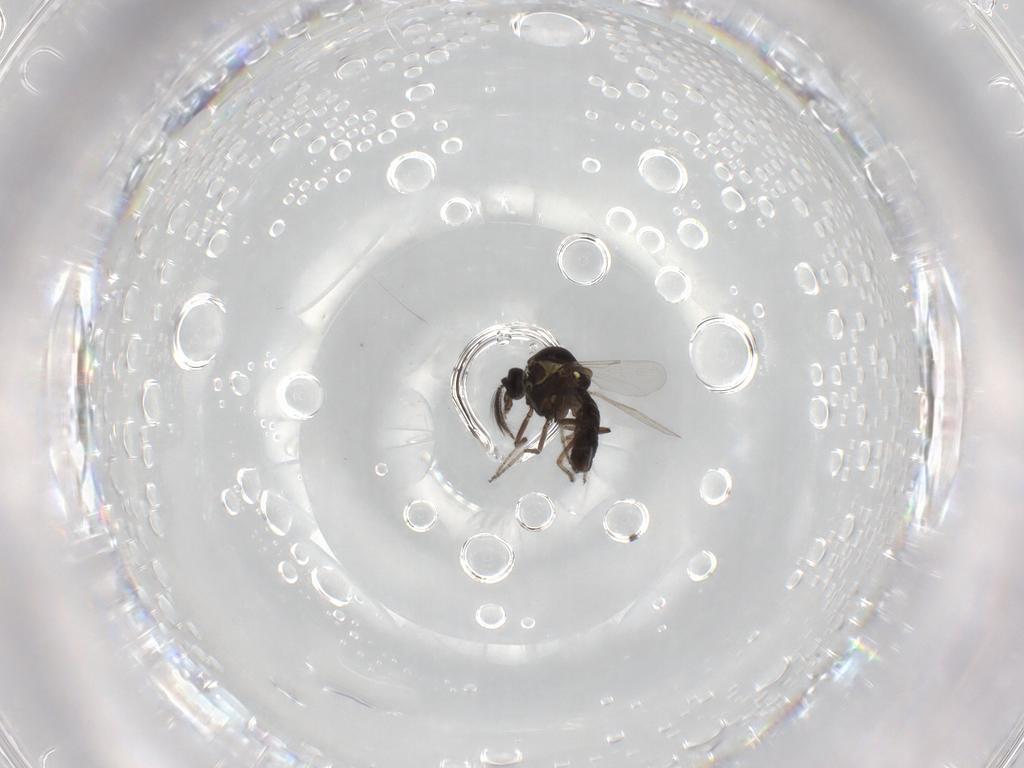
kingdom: Animalia
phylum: Arthropoda
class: Insecta
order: Diptera
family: Ceratopogonidae
